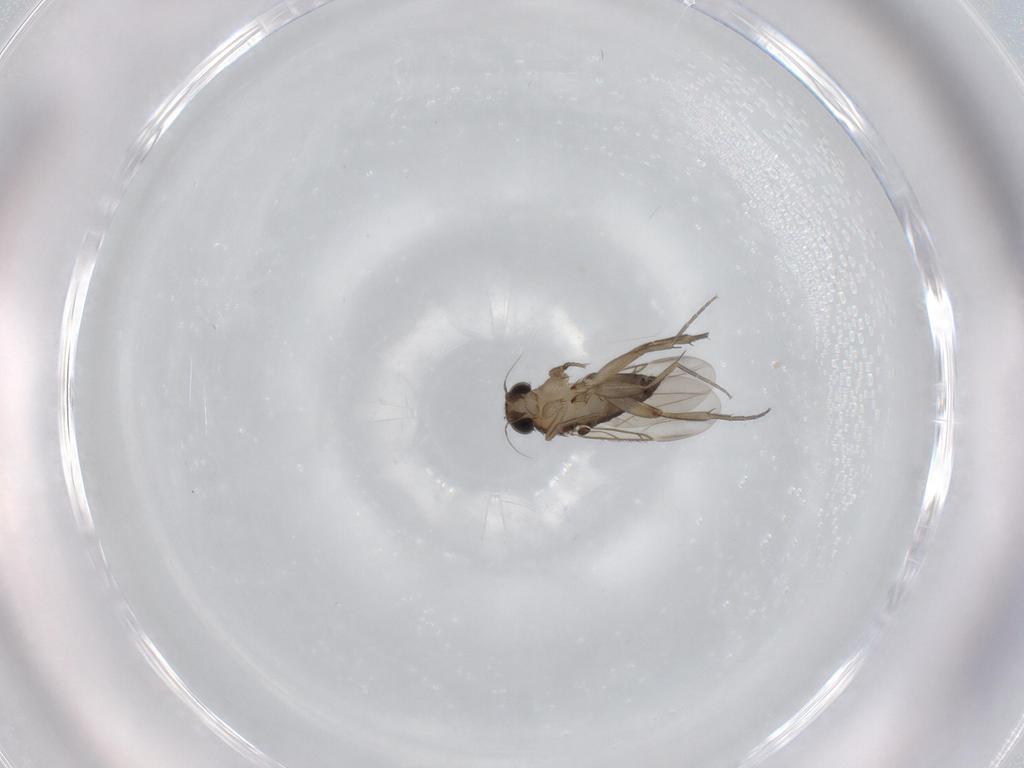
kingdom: Animalia
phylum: Arthropoda
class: Insecta
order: Diptera
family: Phoridae
